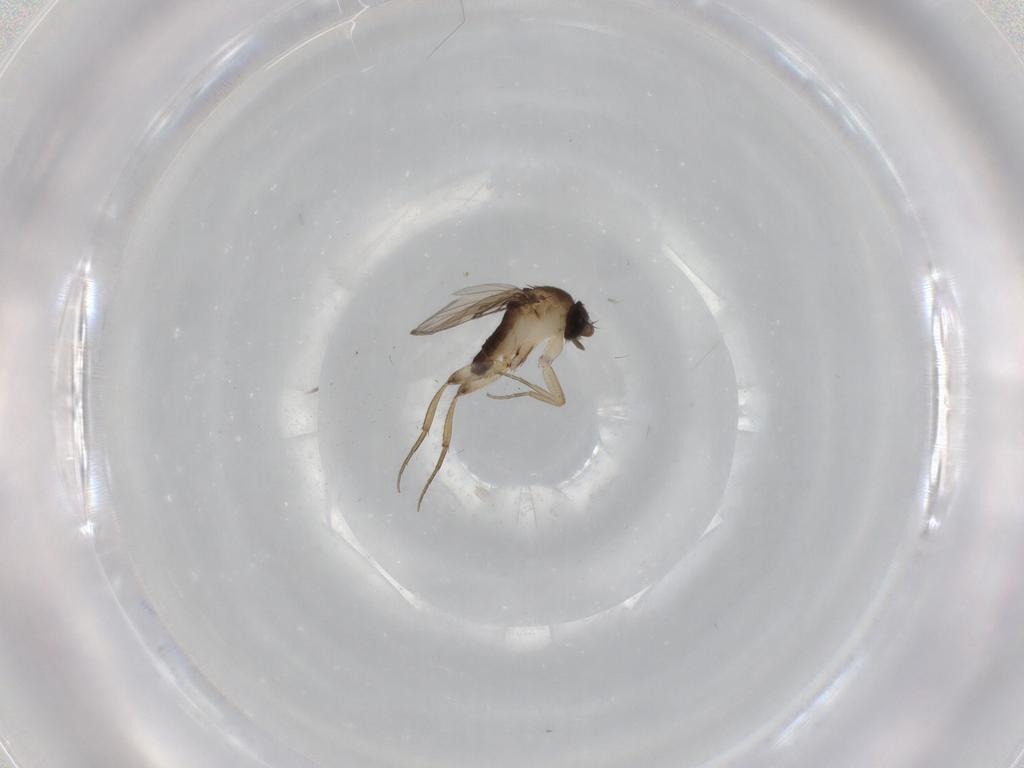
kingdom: Animalia
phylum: Arthropoda
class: Insecta
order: Diptera
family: Phoridae
